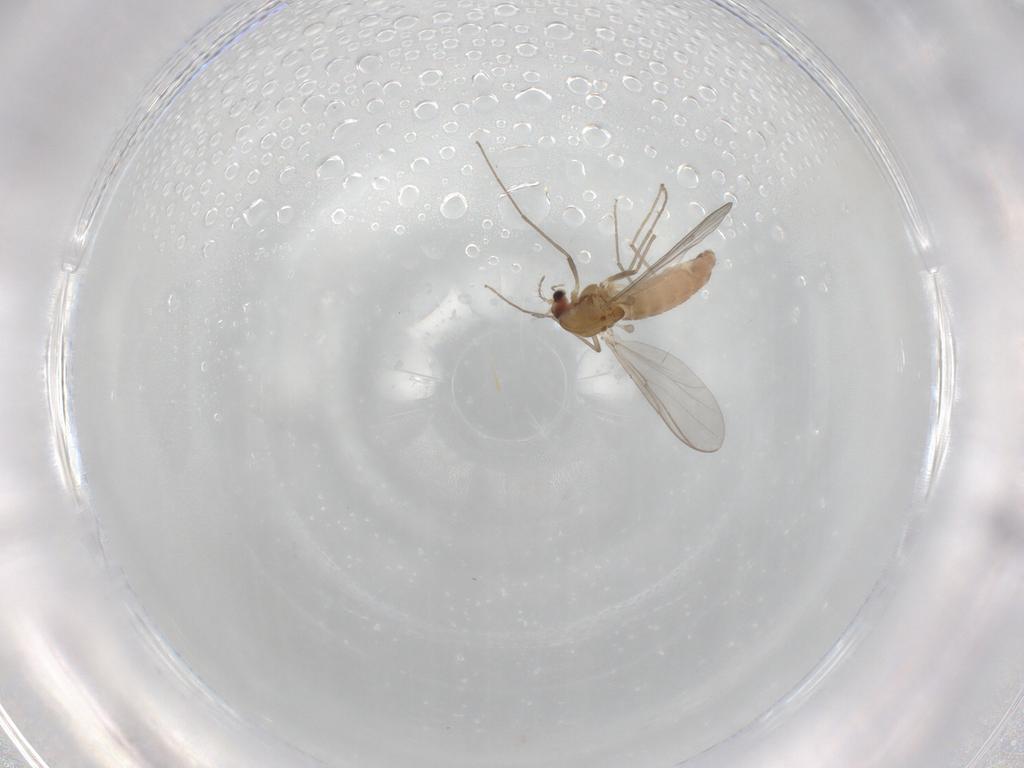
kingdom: Animalia
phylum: Arthropoda
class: Insecta
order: Diptera
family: Chironomidae
